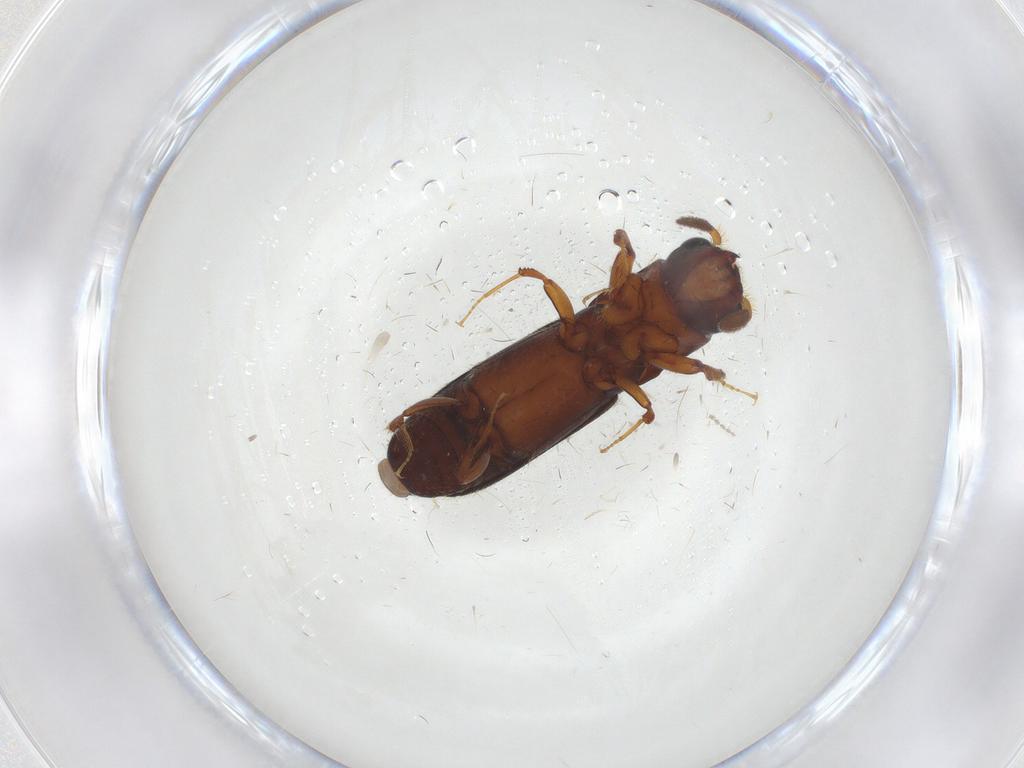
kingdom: Animalia
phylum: Arthropoda
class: Insecta
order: Coleoptera
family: Curculionidae
